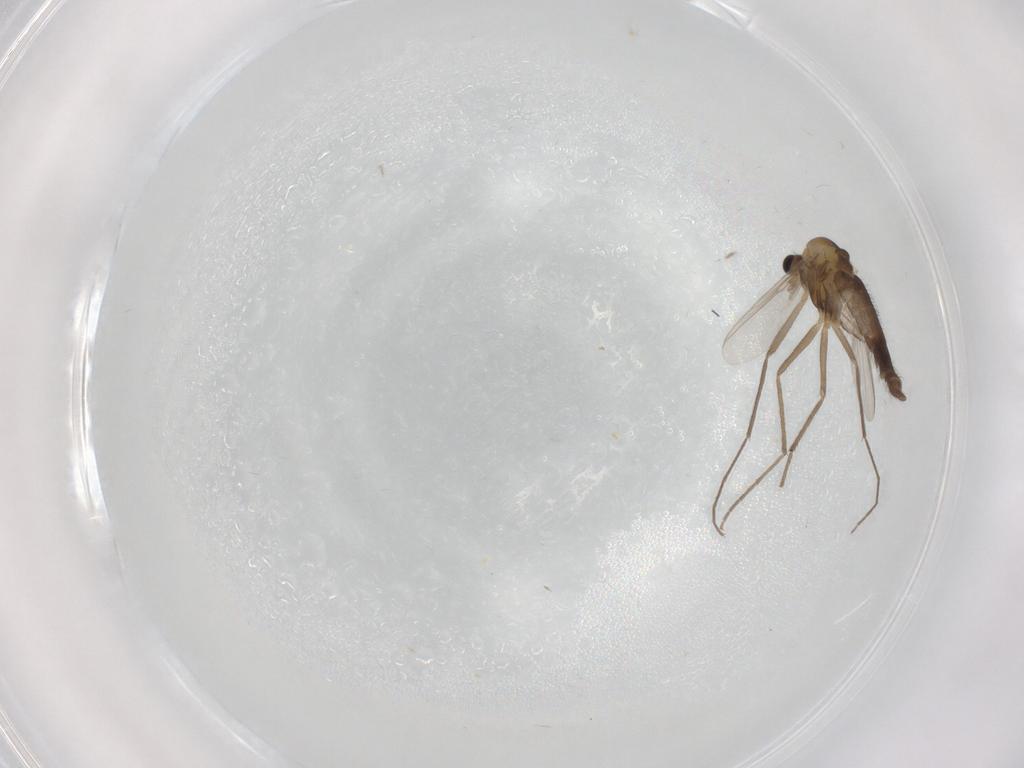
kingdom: Animalia
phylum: Arthropoda
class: Insecta
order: Diptera
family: Chironomidae
